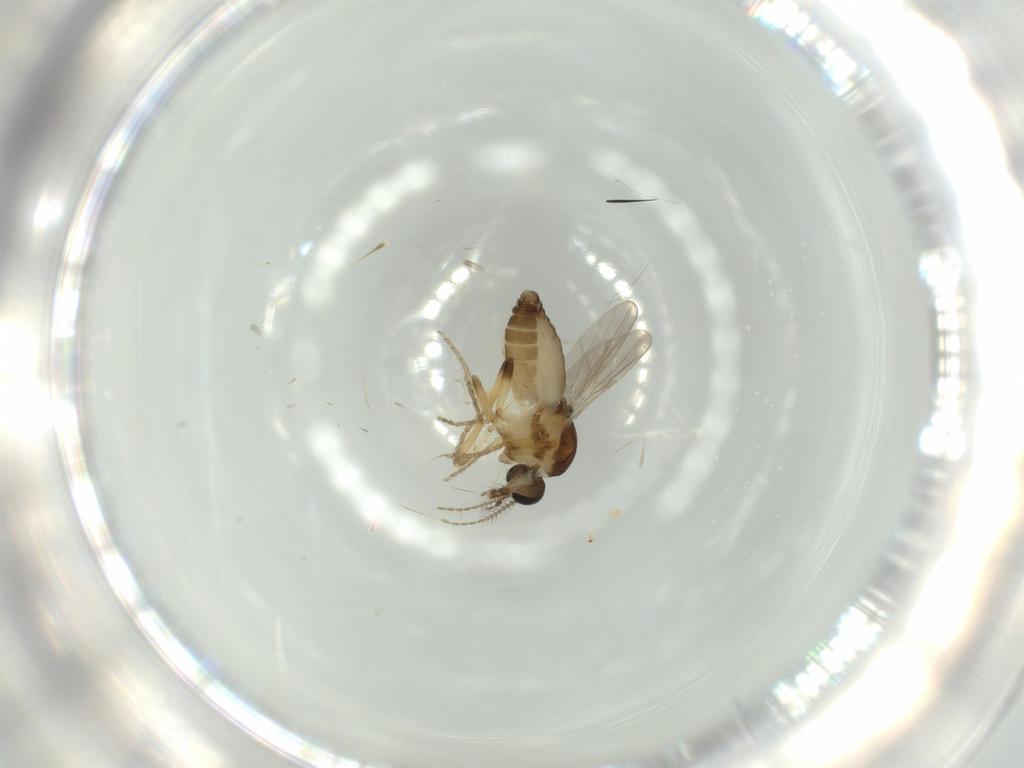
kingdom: Animalia
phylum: Arthropoda
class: Insecta
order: Diptera
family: Ceratopogonidae
